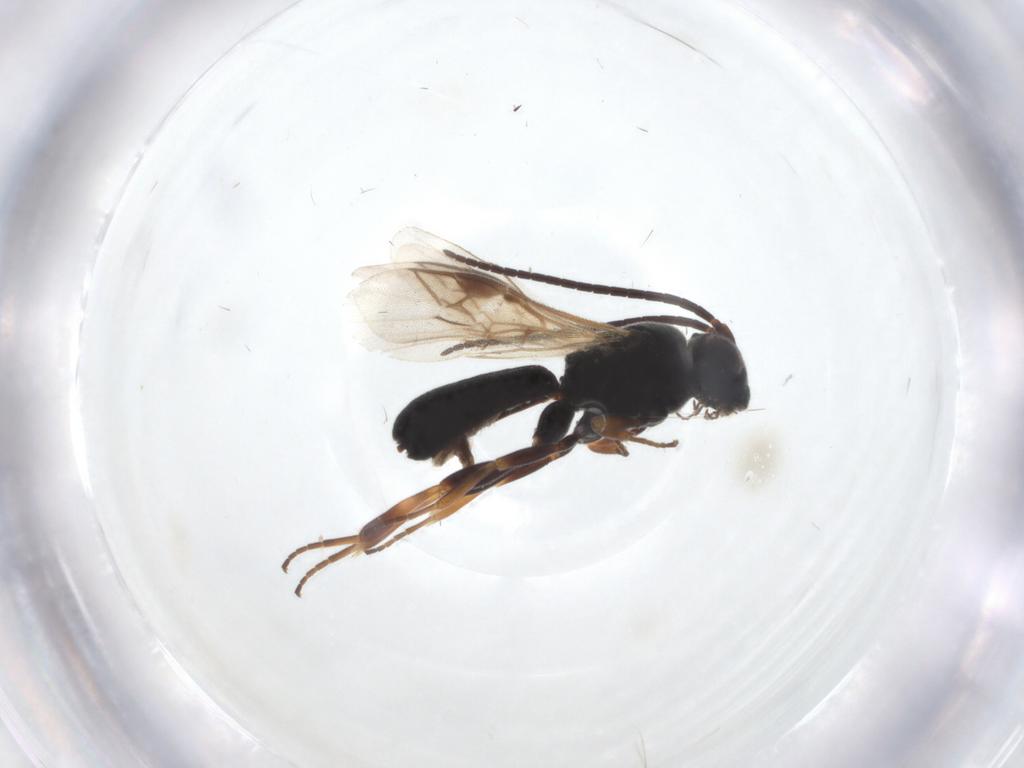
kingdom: Animalia
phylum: Arthropoda
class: Insecta
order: Hymenoptera
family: Braconidae
